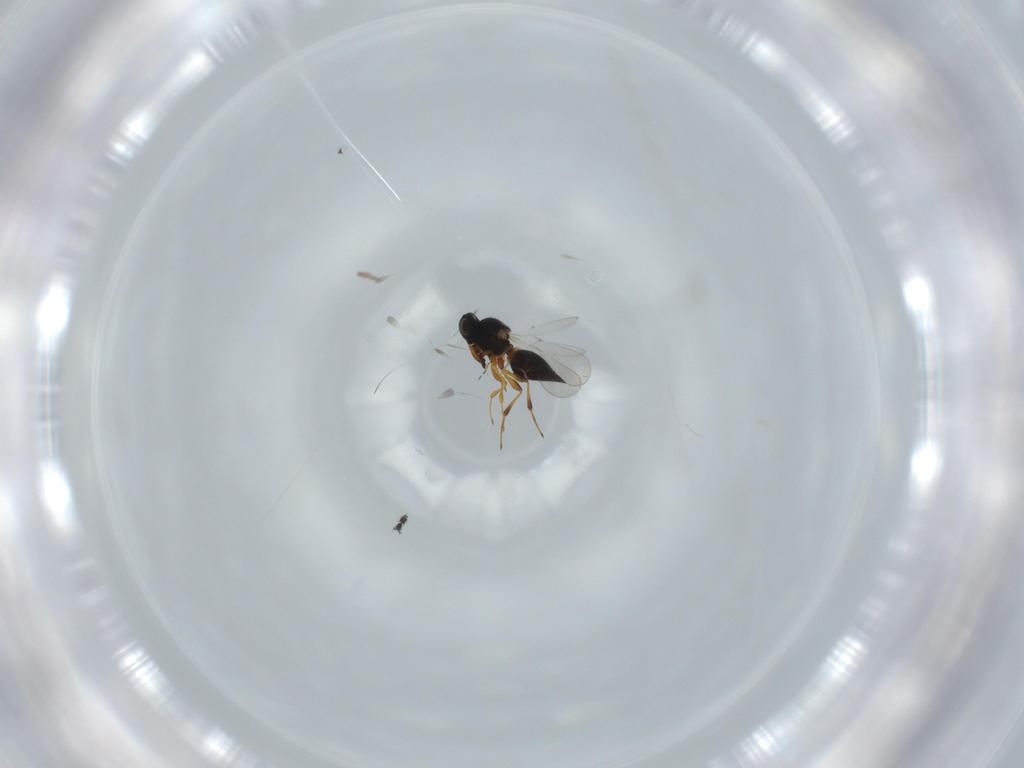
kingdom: Animalia
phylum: Arthropoda
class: Insecta
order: Hymenoptera
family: Platygastridae
